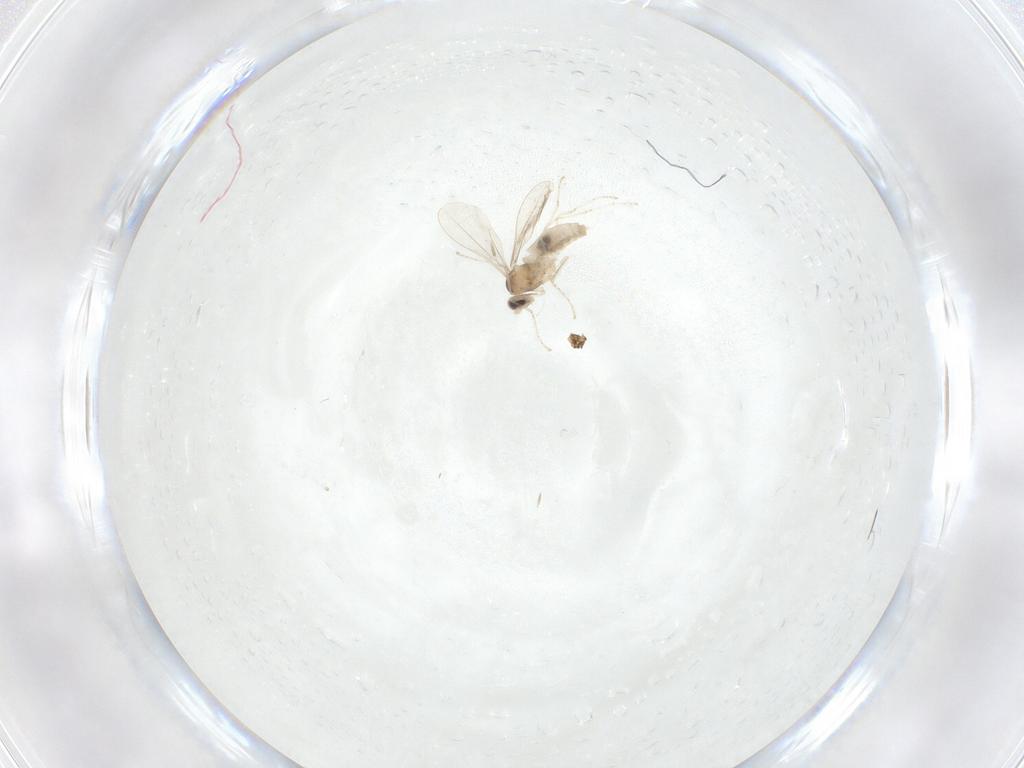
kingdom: Animalia
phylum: Arthropoda
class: Insecta
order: Diptera
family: Cecidomyiidae
